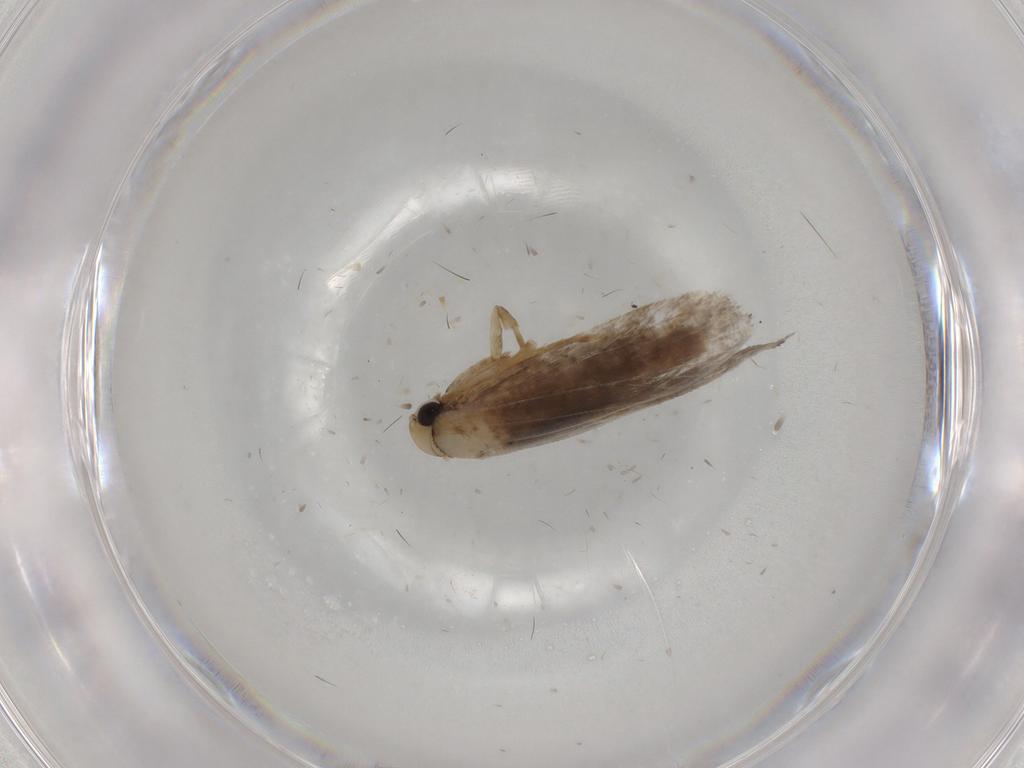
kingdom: Animalia
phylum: Arthropoda
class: Insecta
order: Lepidoptera
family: Tineidae
